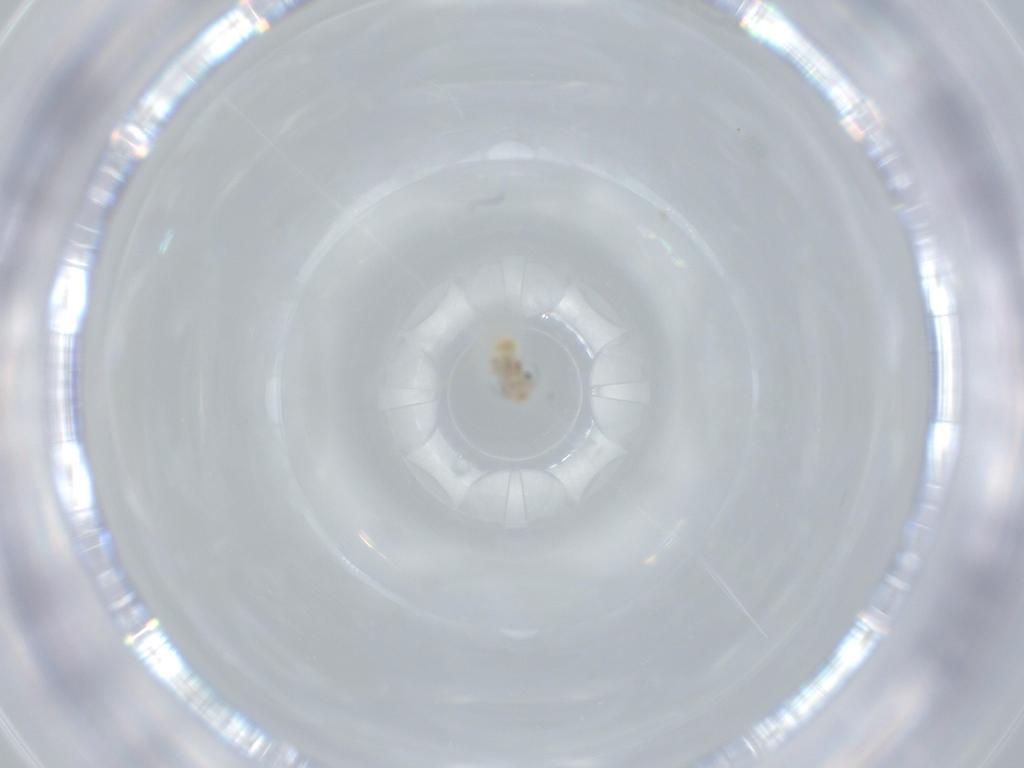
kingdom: Animalia
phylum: Arthropoda
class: Insecta
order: Psocodea
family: Lepidopsocidae
